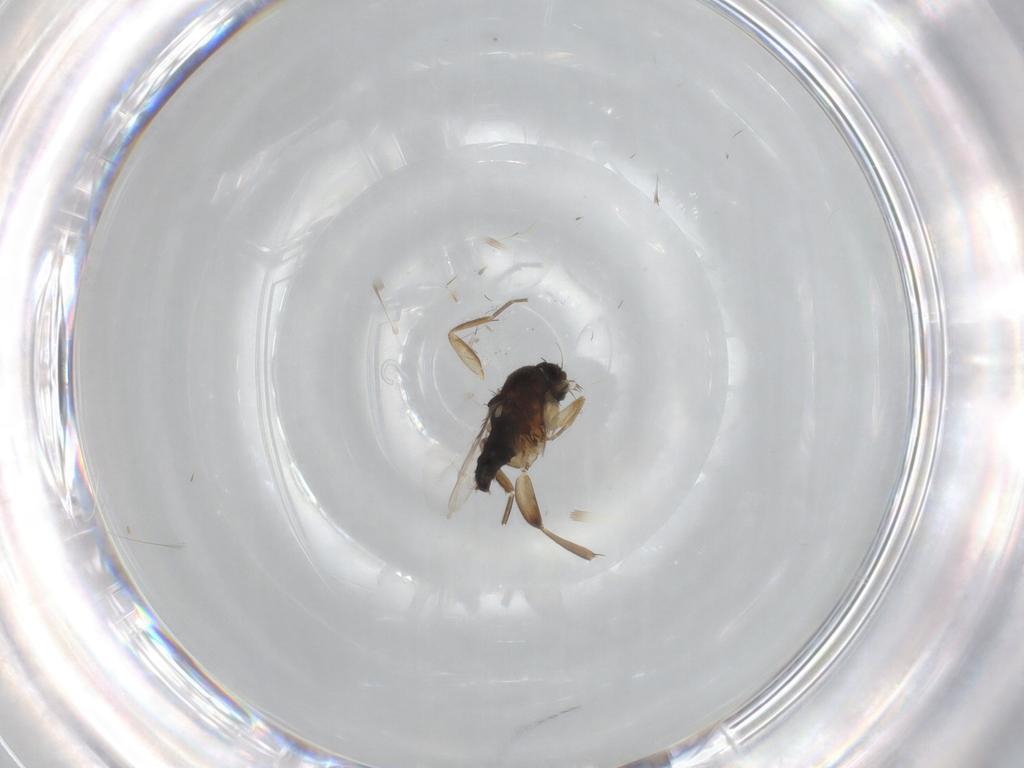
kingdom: Animalia
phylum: Arthropoda
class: Insecta
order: Diptera
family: Phoridae
